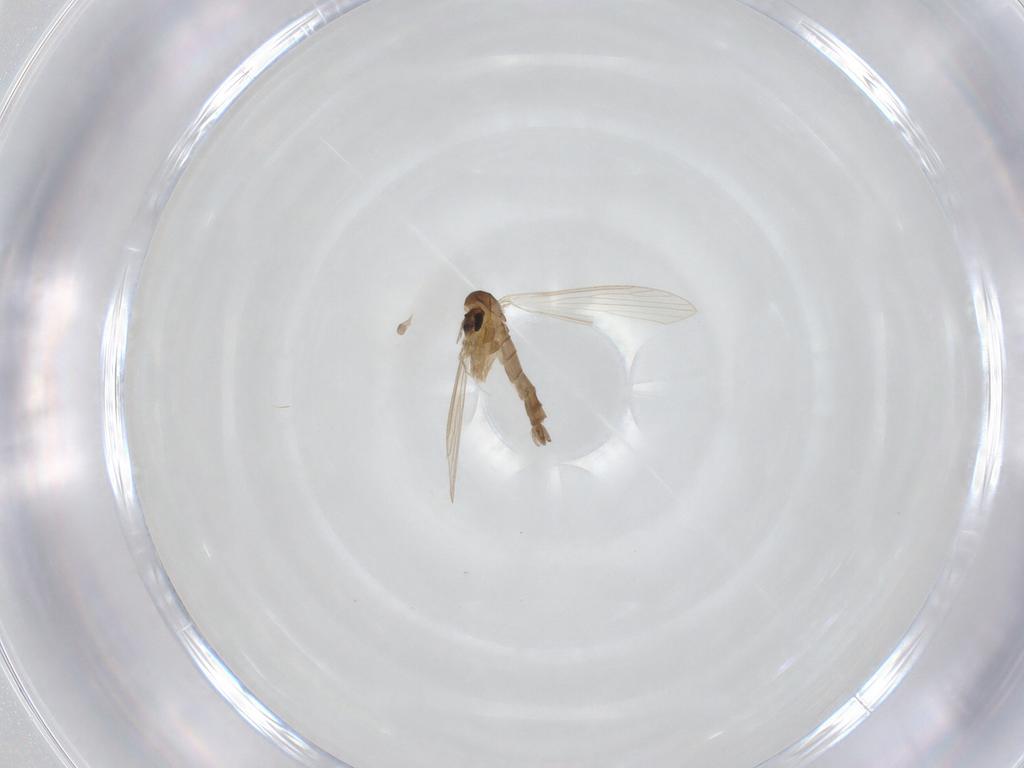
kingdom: Animalia
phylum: Arthropoda
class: Insecta
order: Diptera
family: Psychodidae
